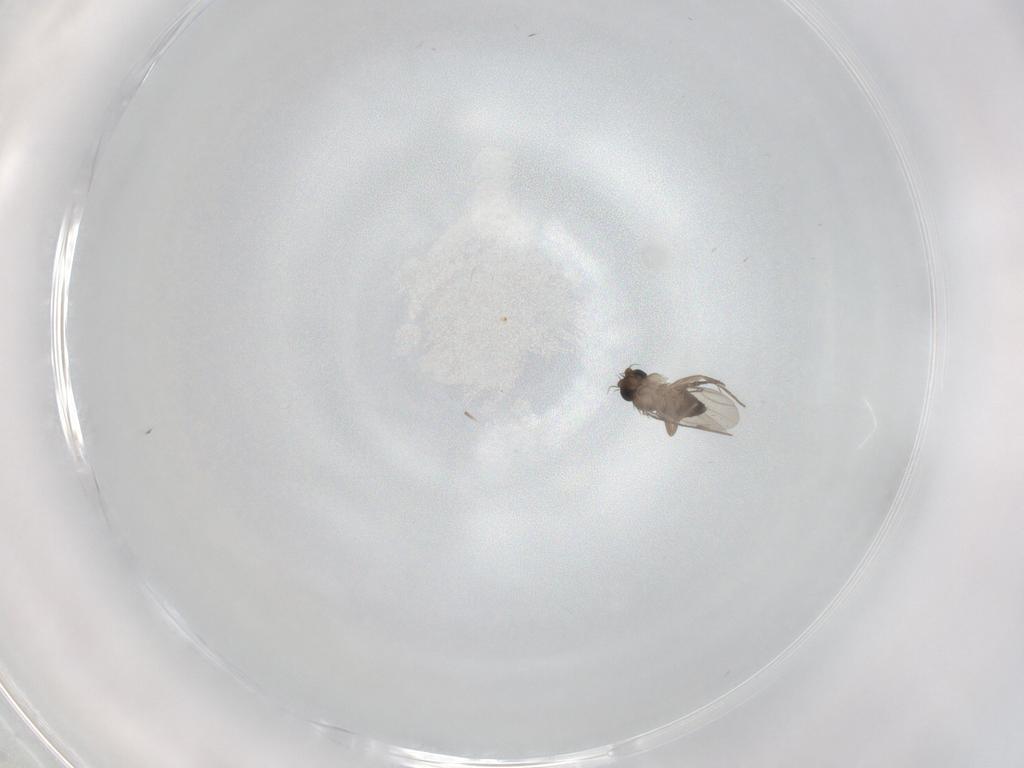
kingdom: Animalia
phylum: Arthropoda
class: Insecta
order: Diptera
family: Phoridae
